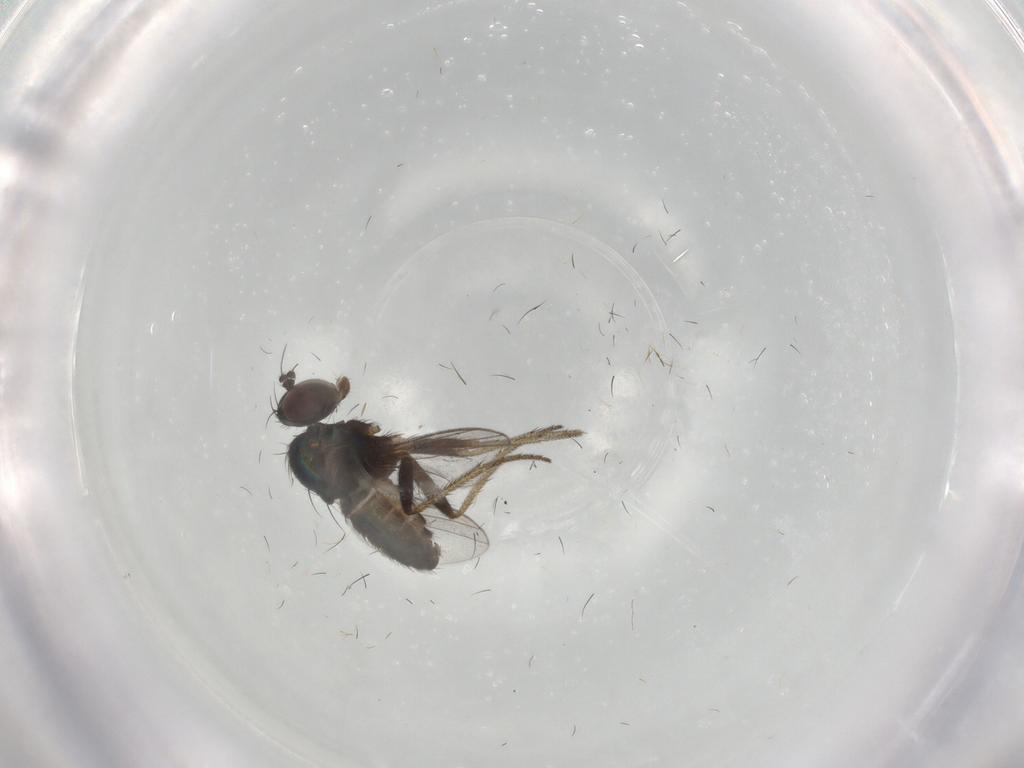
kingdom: Animalia
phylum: Arthropoda
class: Insecta
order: Diptera
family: Dolichopodidae
